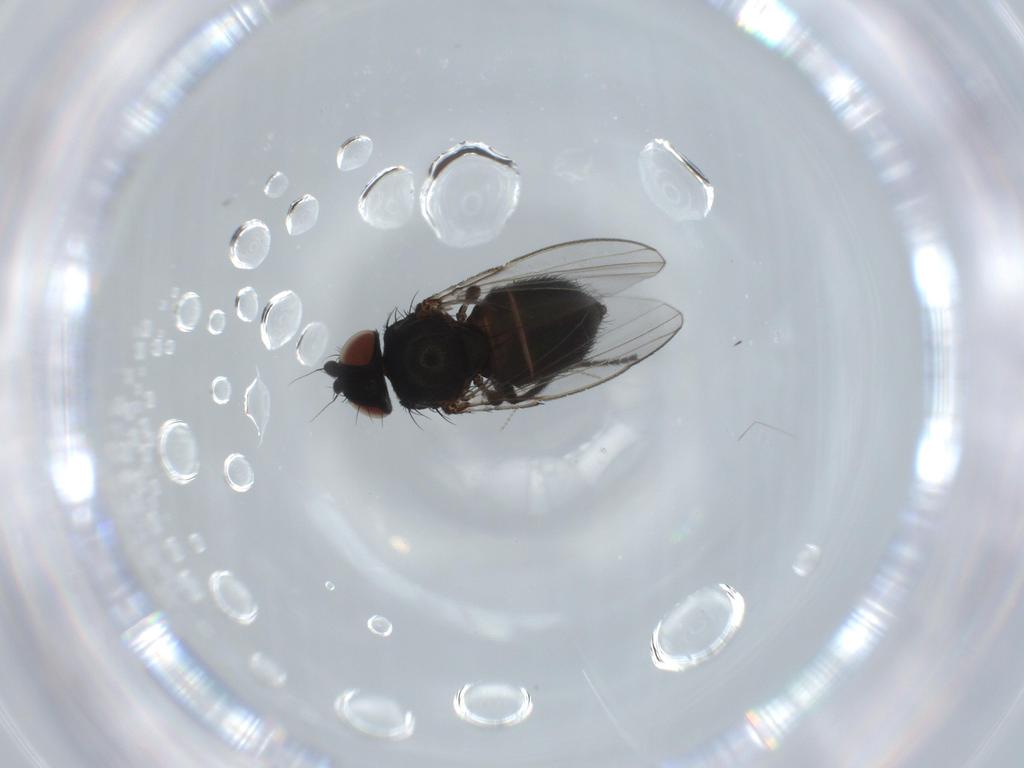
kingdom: Animalia
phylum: Arthropoda
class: Insecta
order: Diptera
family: Milichiidae
